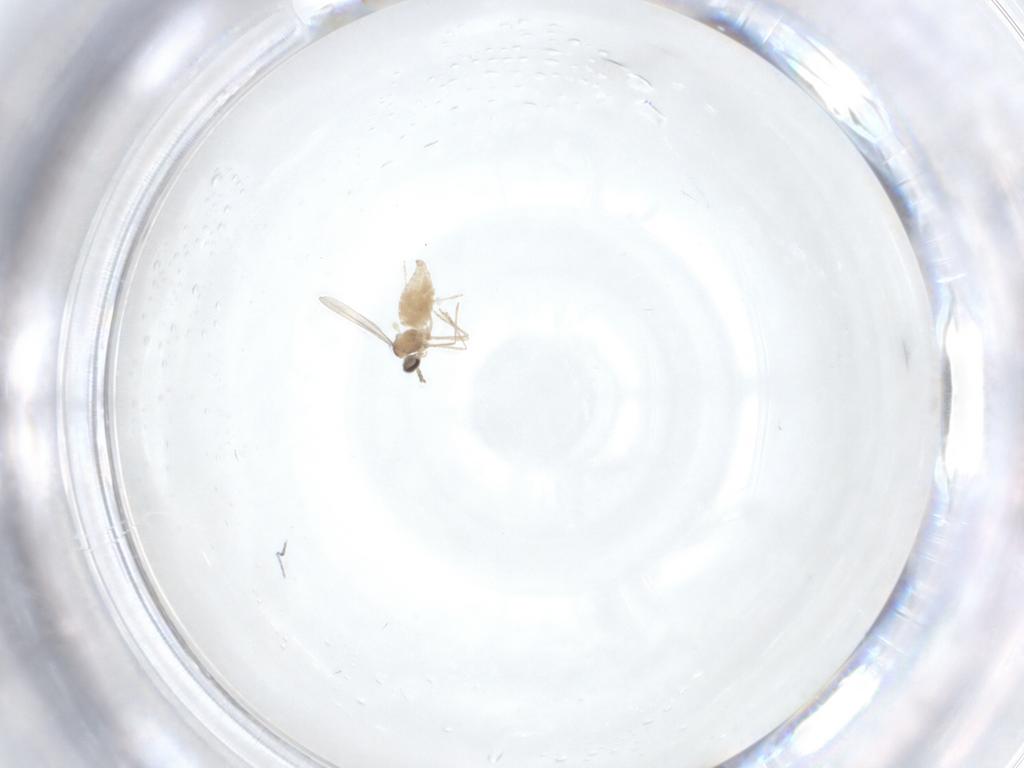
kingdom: Animalia
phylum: Arthropoda
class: Insecta
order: Diptera
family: Cecidomyiidae
